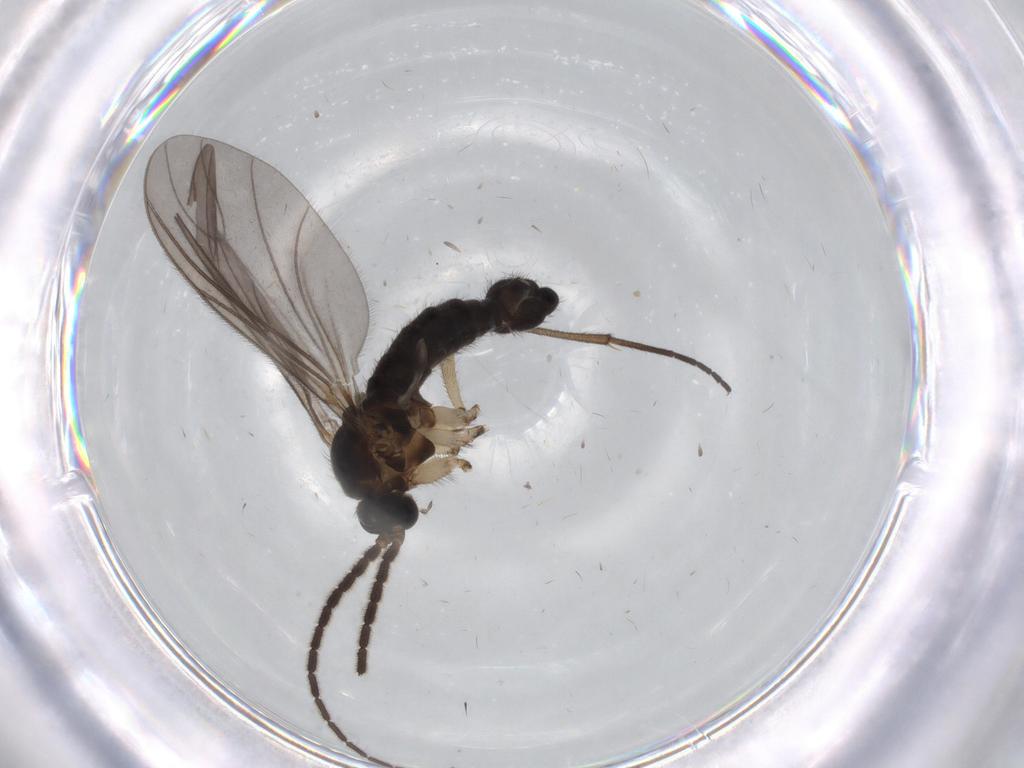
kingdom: Animalia
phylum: Arthropoda
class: Insecta
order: Diptera
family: Sciaridae
